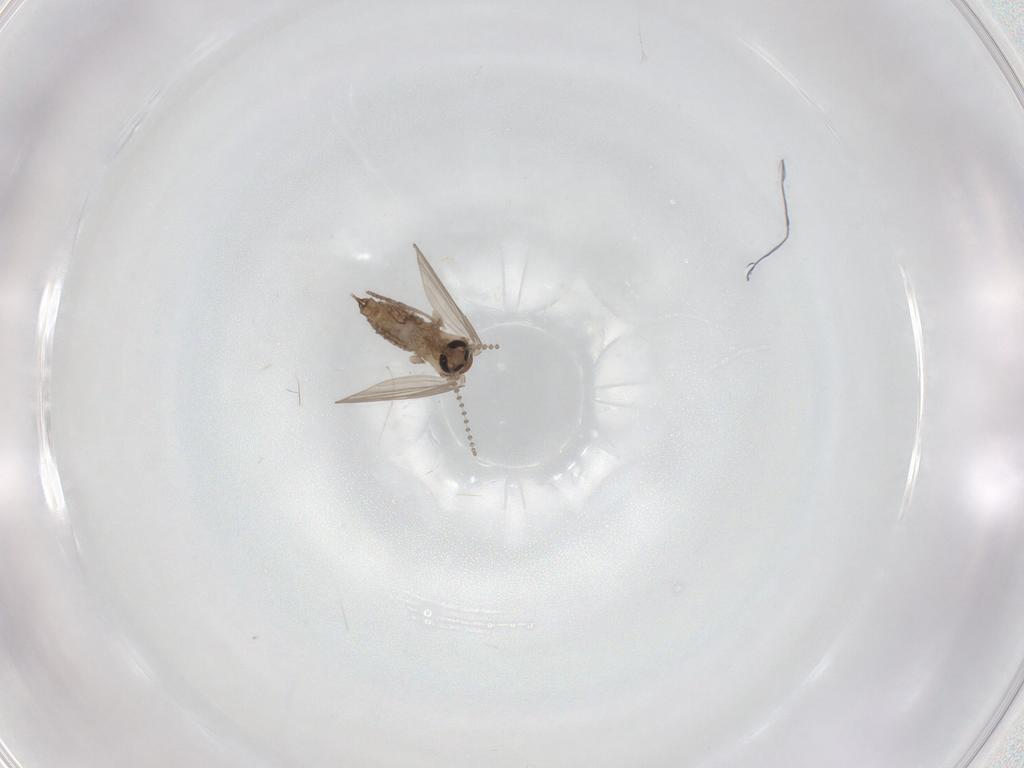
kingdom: Animalia
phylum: Arthropoda
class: Insecta
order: Diptera
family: Psychodidae
